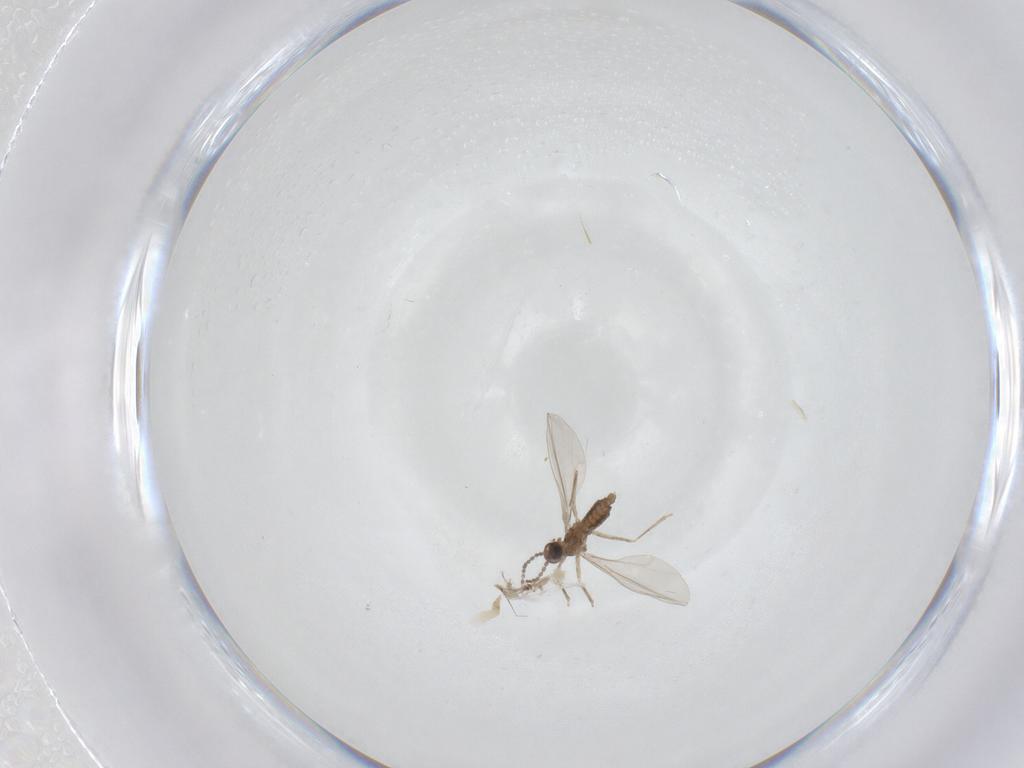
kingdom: Animalia
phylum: Arthropoda
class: Insecta
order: Diptera
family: Cecidomyiidae
